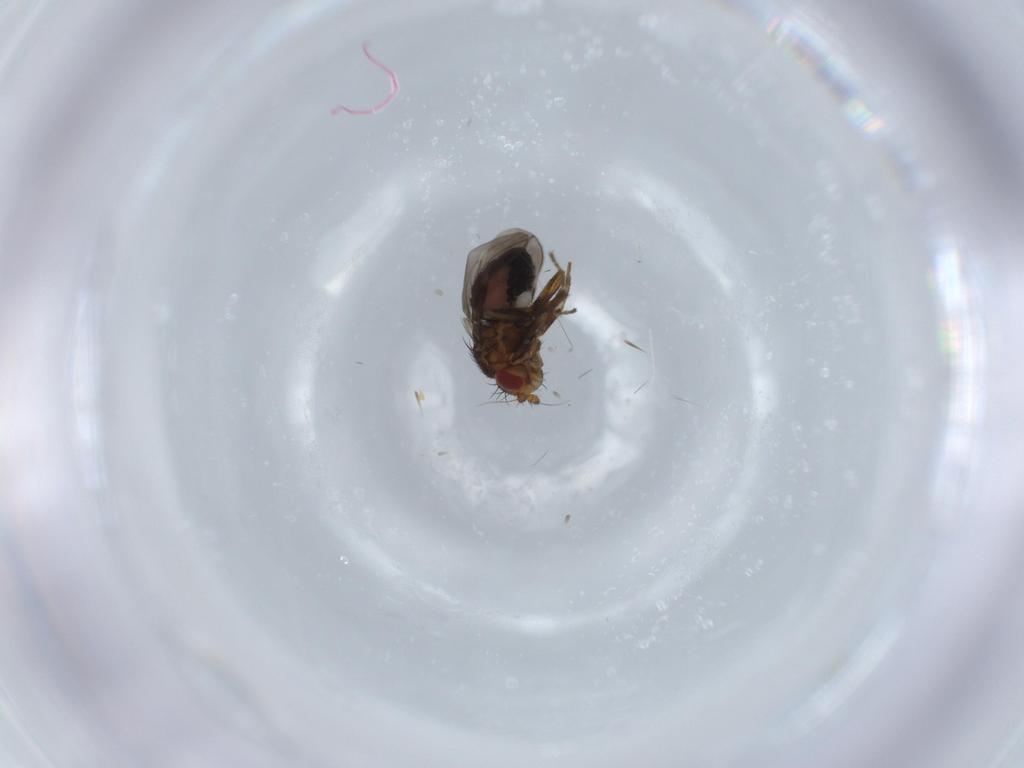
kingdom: Animalia
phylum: Arthropoda
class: Insecta
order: Diptera
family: Sphaeroceridae
